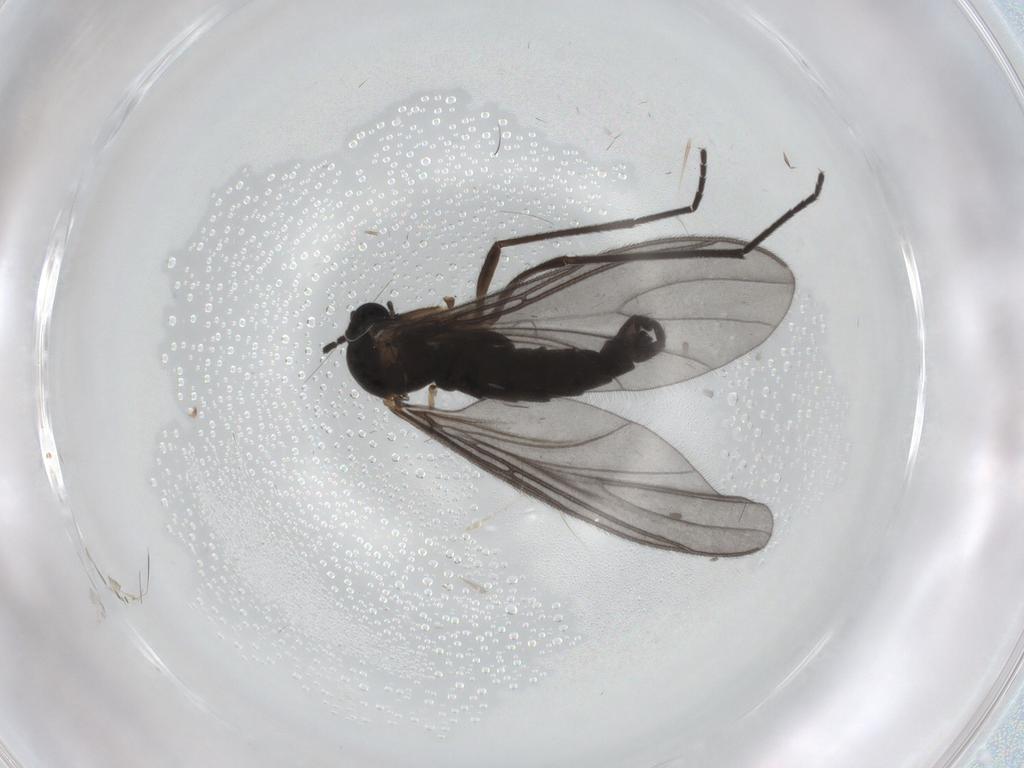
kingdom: Animalia
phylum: Arthropoda
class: Insecta
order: Diptera
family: Sciaridae
